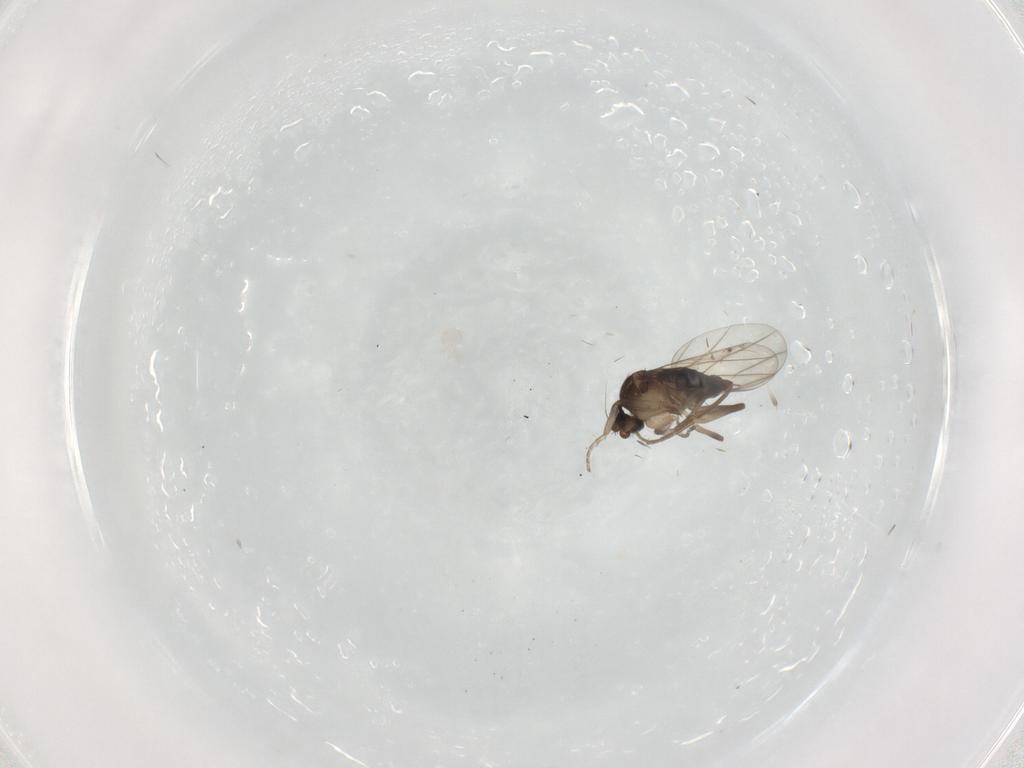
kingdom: Animalia
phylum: Arthropoda
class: Insecta
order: Diptera
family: Phoridae
